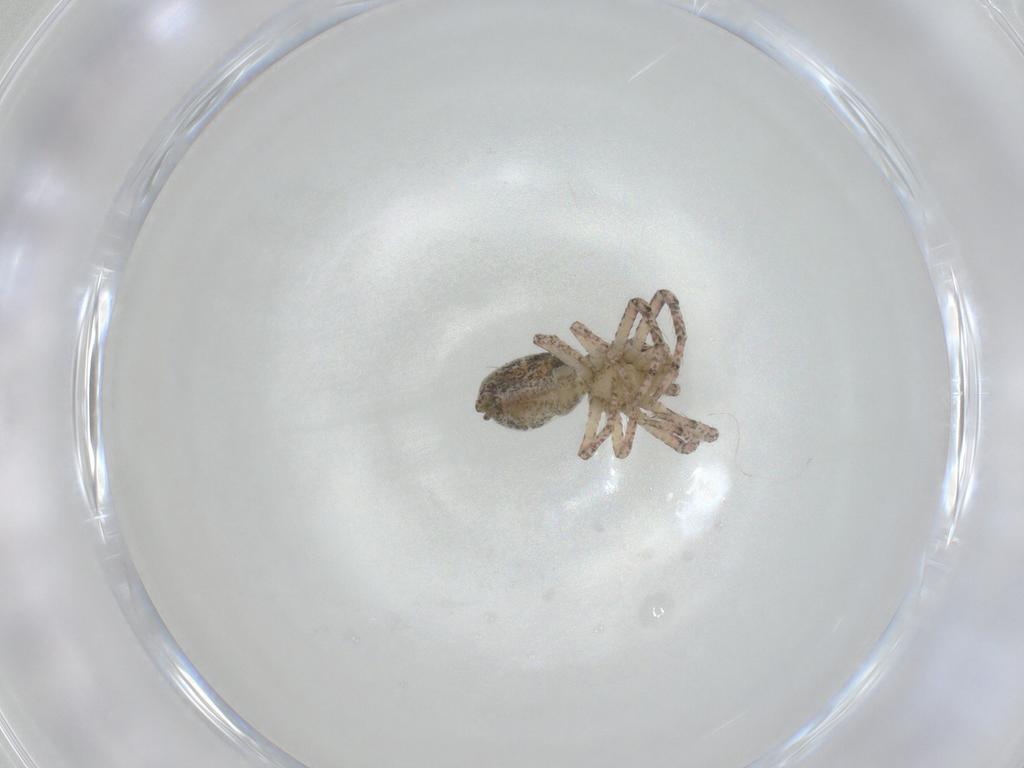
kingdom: Animalia
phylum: Arthropoda
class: Arachnida
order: Araneae
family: Thomisidae
